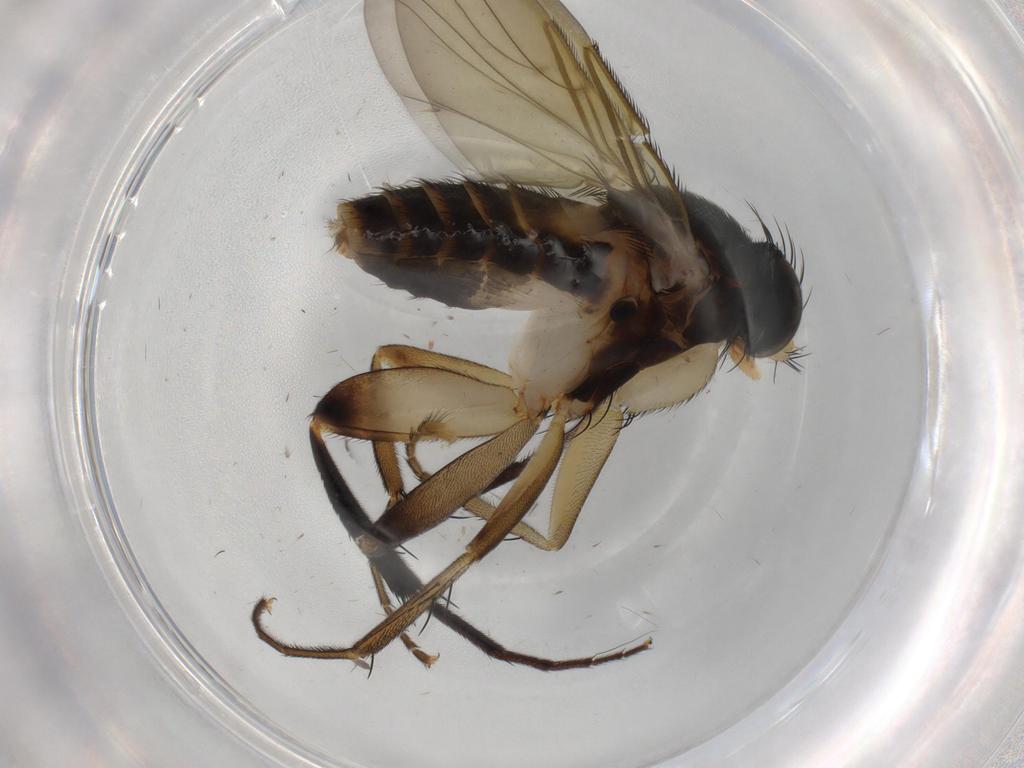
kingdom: Animalia
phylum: Arthropoda
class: Insecta
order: Diptera
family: Phoridae
